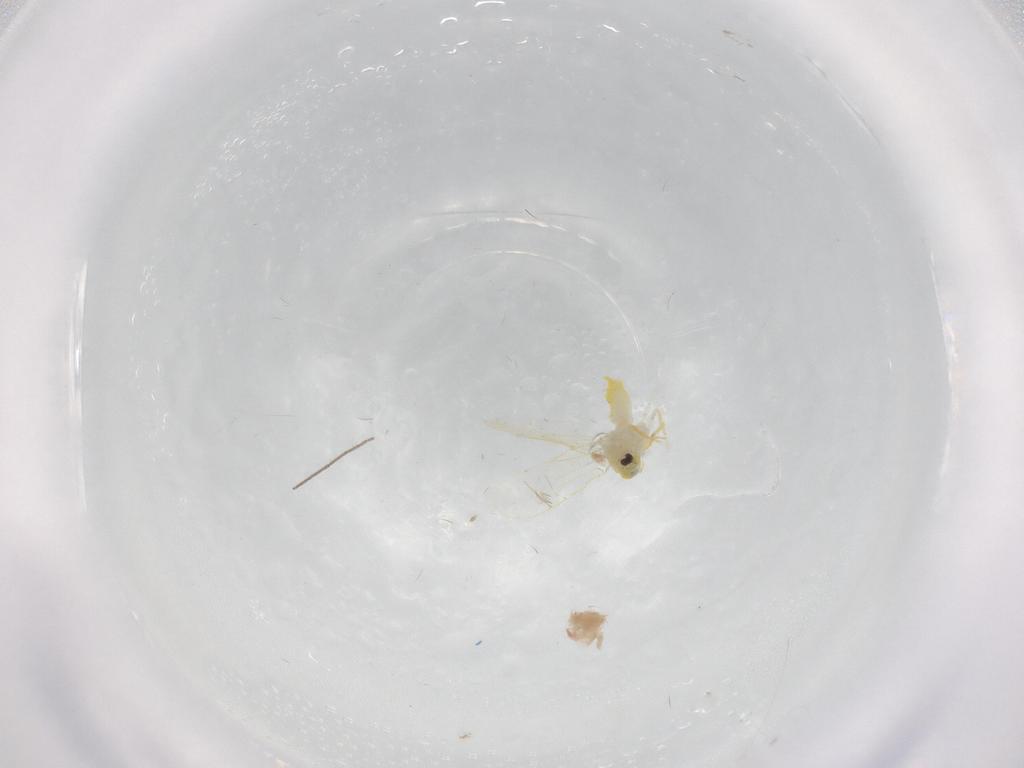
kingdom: Animalia
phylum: Arthropoda
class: Insecta
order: Hemiptera
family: Aleyrodidae
